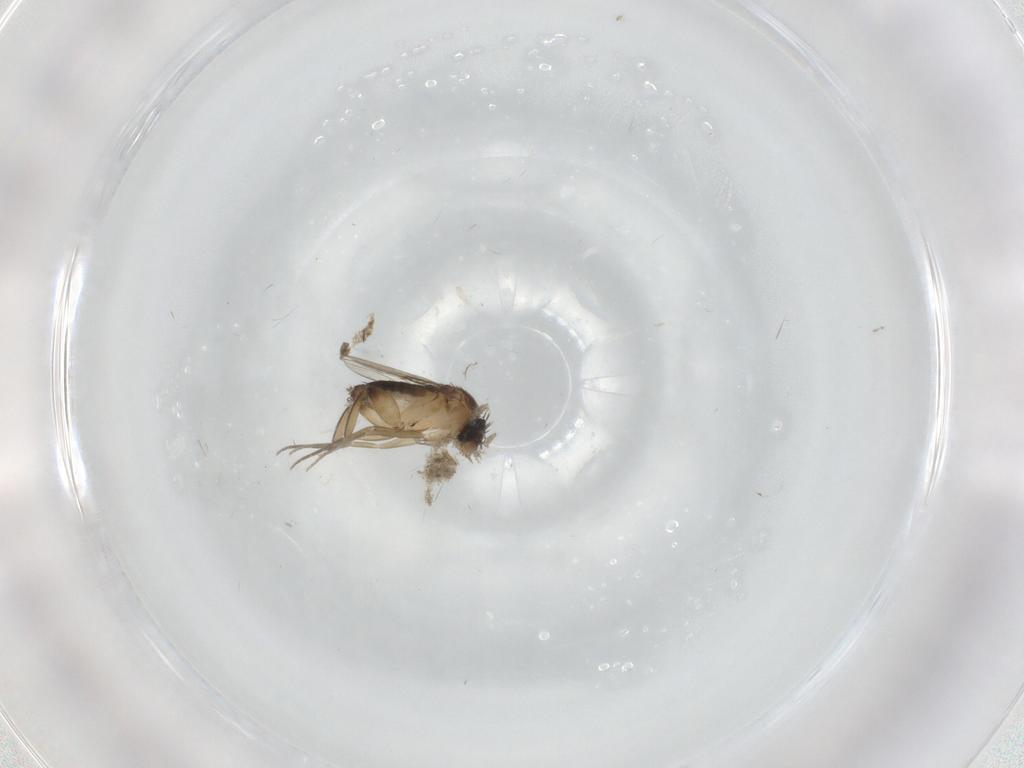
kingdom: Animalia
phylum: Arthropoda
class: Insecta
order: Diptera
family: Phoridae
